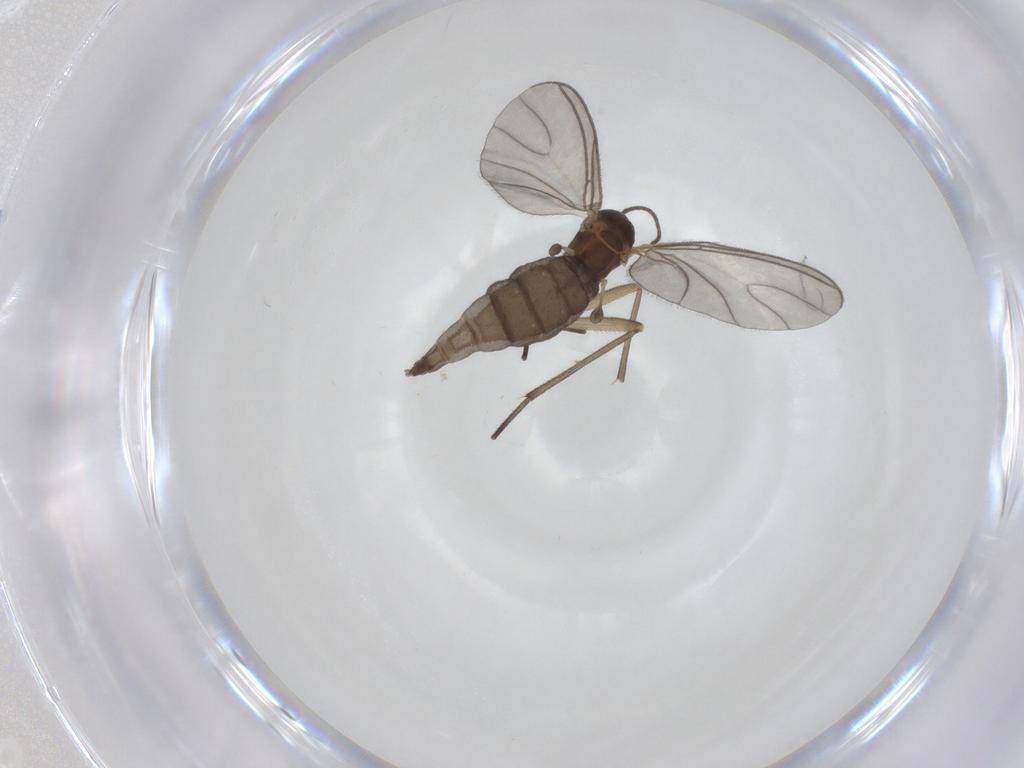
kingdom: Animalia
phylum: Arthropoda
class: Insecta
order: Diptera
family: Sciaridae
